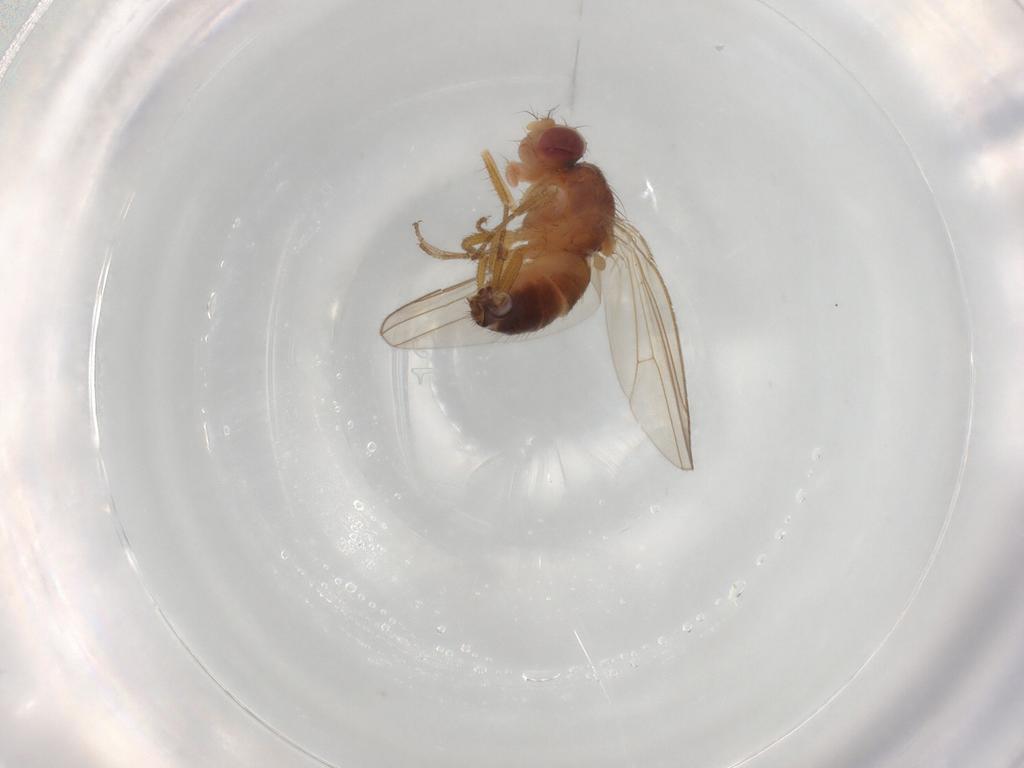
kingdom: Animalia
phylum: Arthropoda
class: Insecta
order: Diptera
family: Drosophilidae
